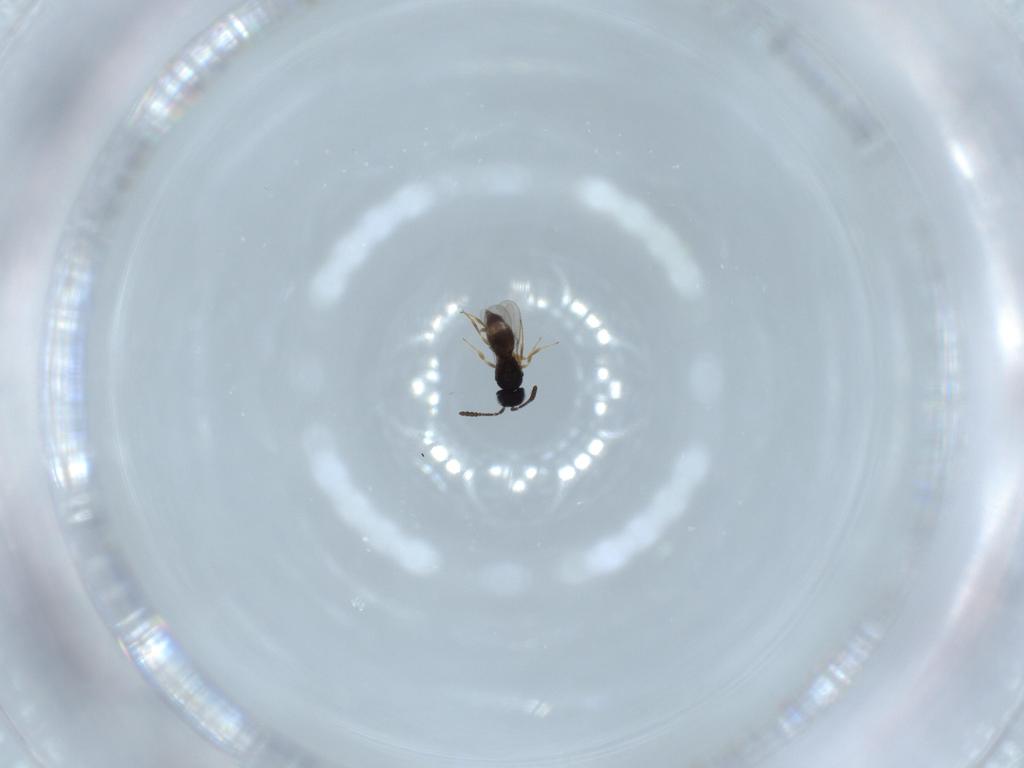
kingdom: Animalia
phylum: Arthropoda
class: Insecta
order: Hymenoptera
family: Scelionidae
